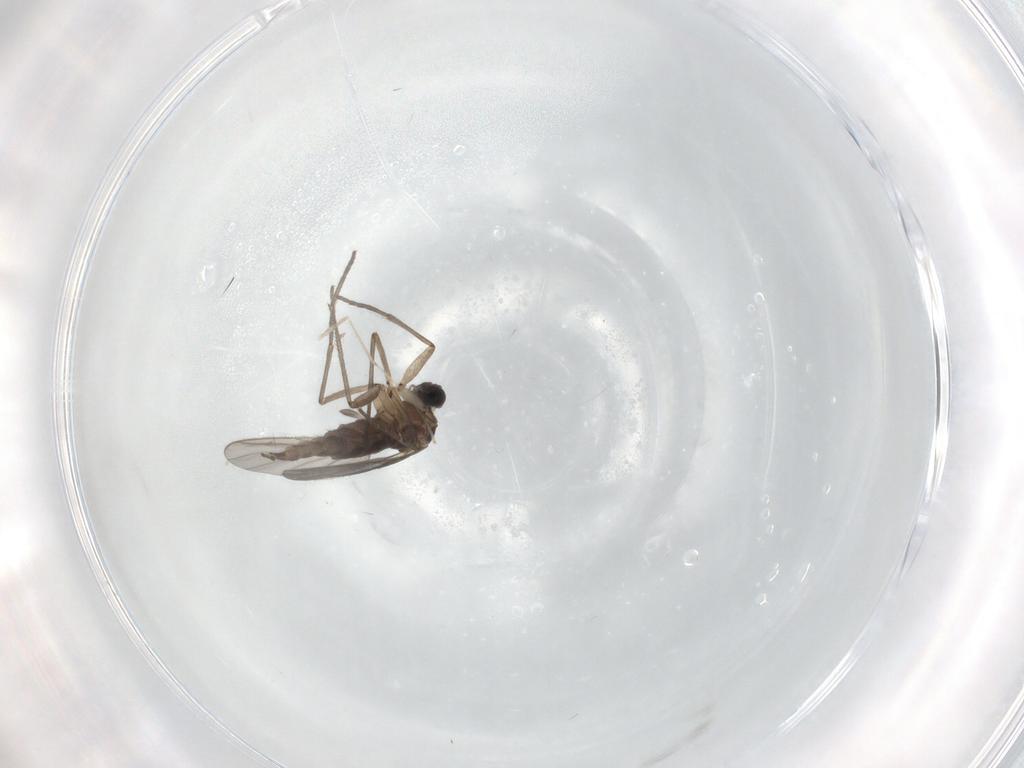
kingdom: Animalia
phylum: Arthropoda
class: Insecta
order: Diptera
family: Sciaridae
